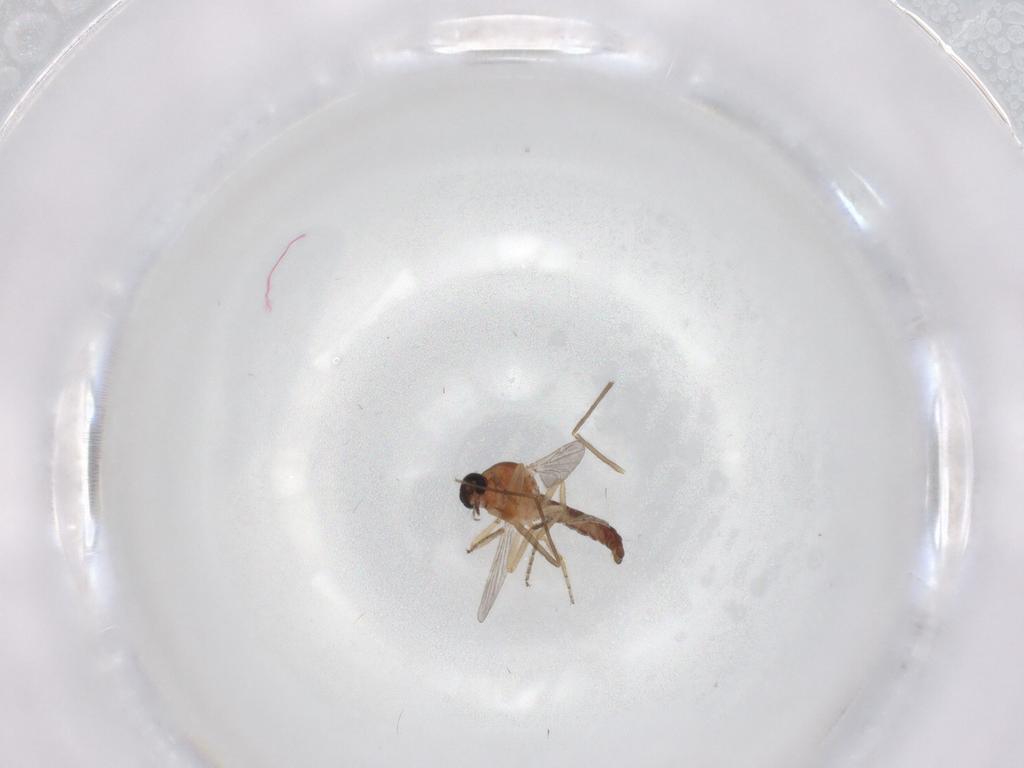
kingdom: Animalia
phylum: Arthropoda
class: Insecta
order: Diptera
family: Ceratopogonidae
